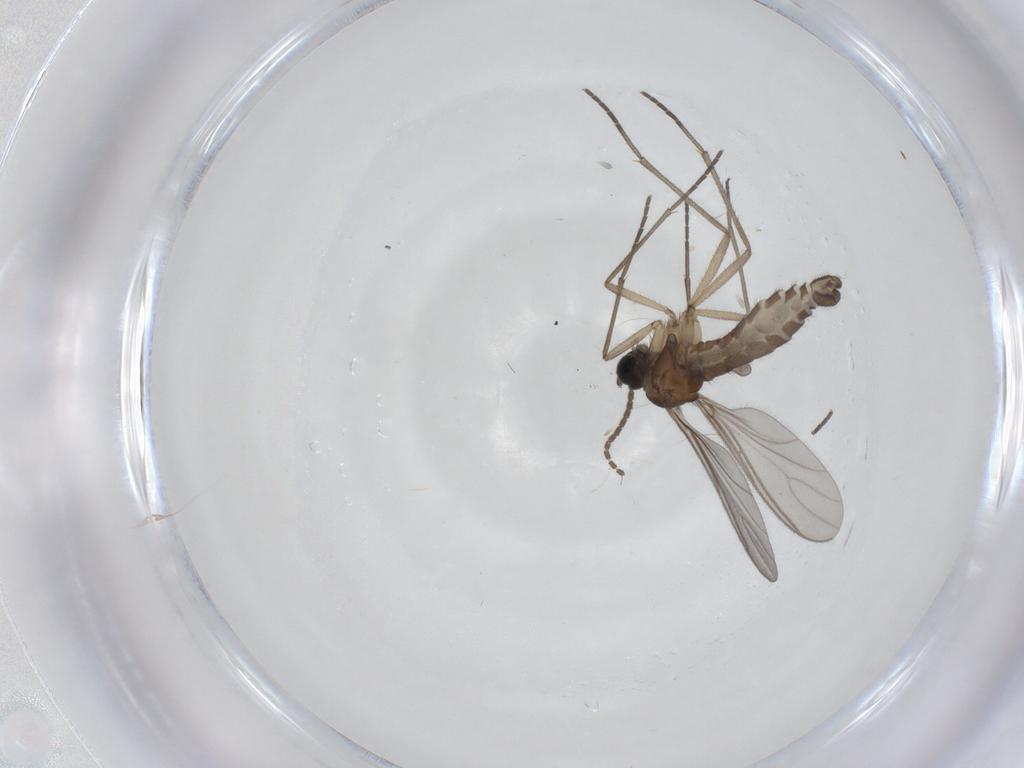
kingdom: Animalia
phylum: Arthropoda
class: Insecta
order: Diptera
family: Sciaridae
